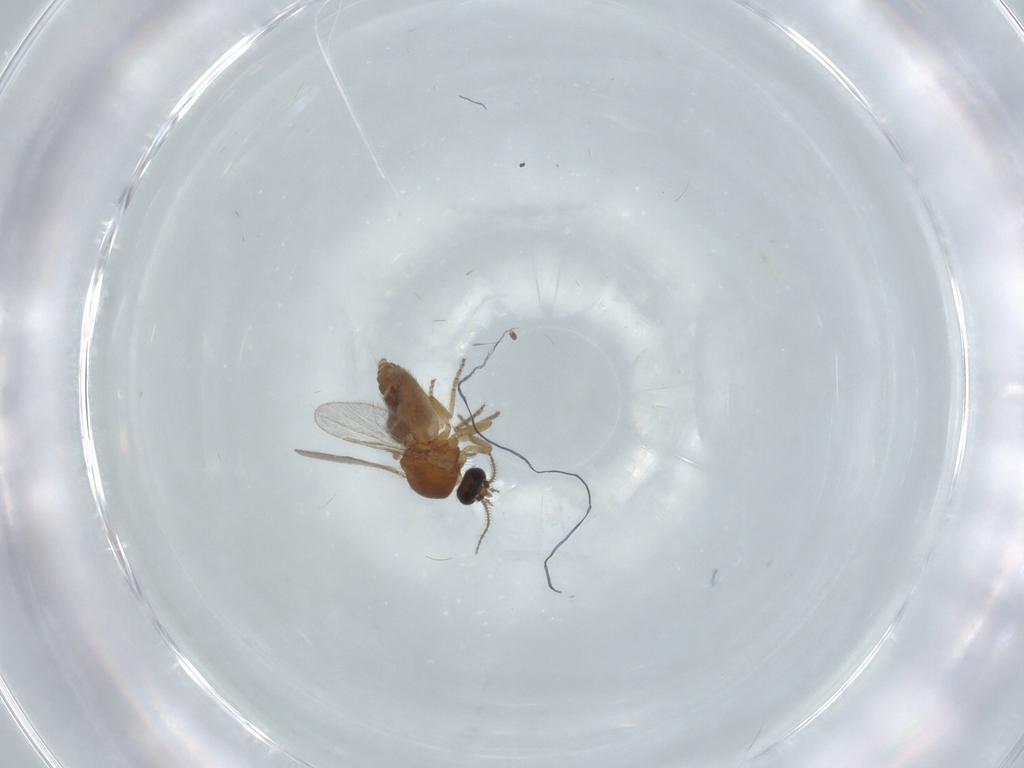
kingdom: Animalia
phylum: Arthropoda
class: Insecta
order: Diptera
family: Ceratopogonidae
